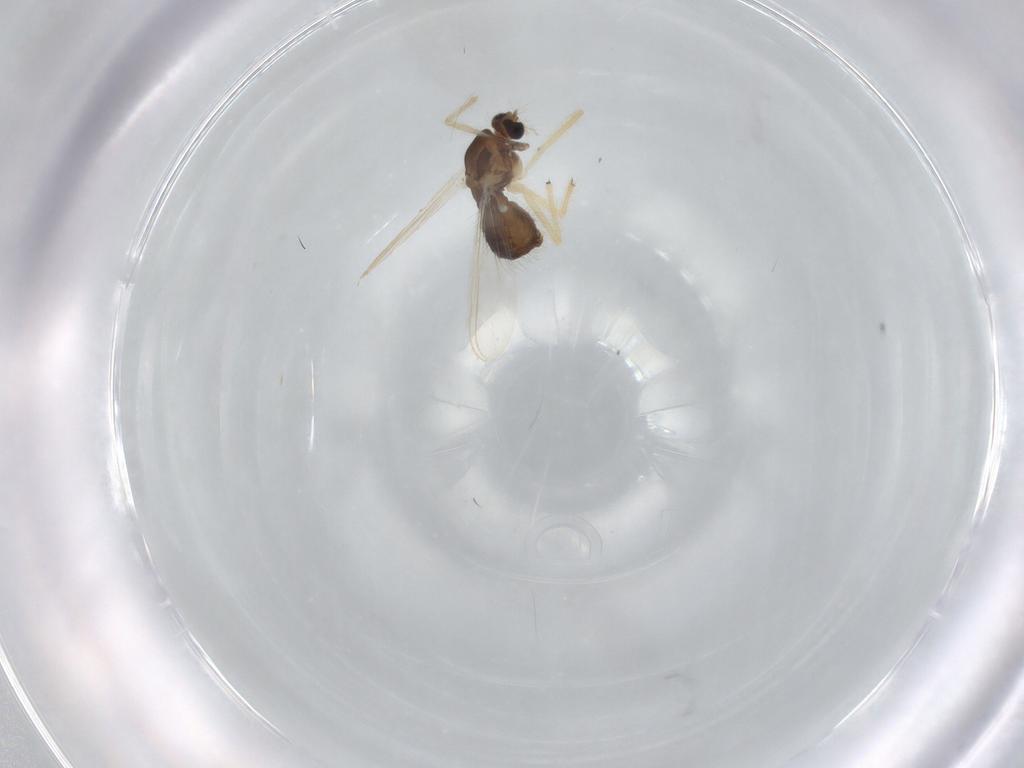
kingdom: Animalia
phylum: Arthropoda
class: Insecta
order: Diptera
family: Chironomidae
